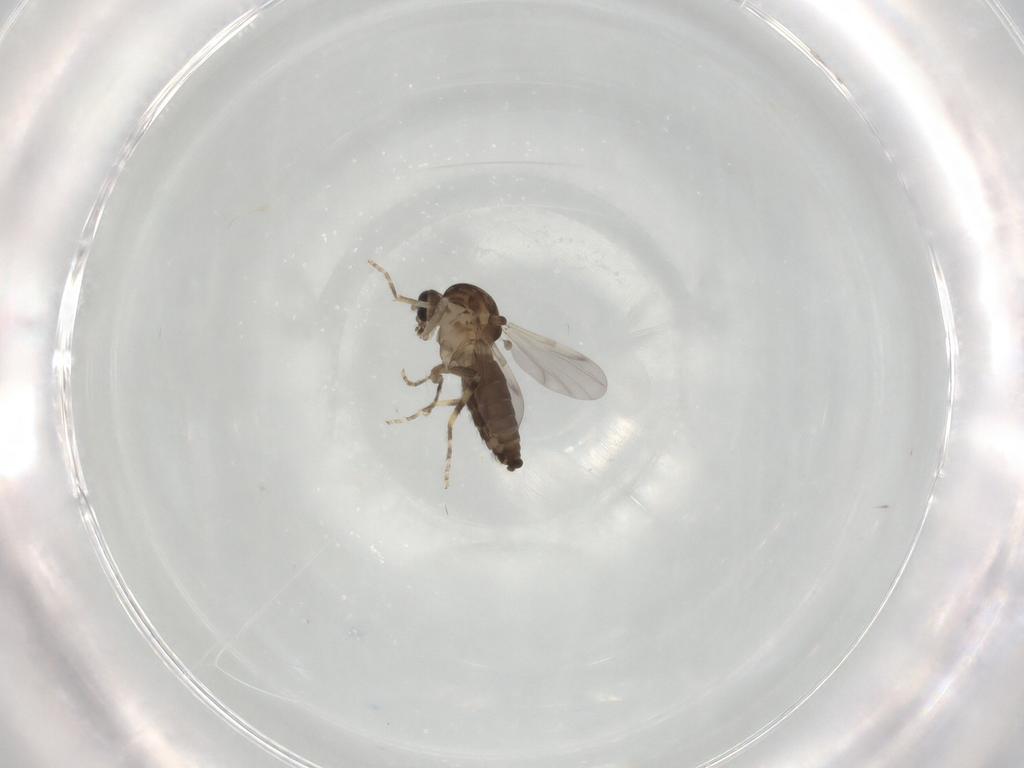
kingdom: Animalia
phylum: Arthropoda
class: Insecta
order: Diptera
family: Ceratopogonidae
